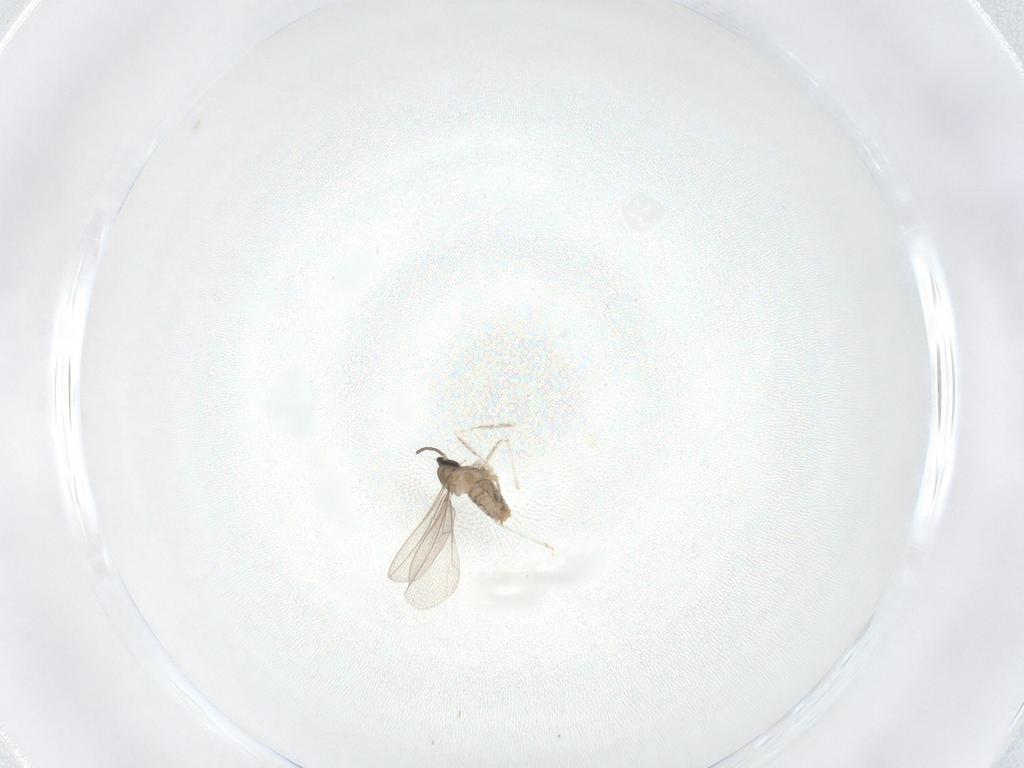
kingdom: Animalia
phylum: Arthropoda
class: Insecta
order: Diptera
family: Cecidomyiidae
